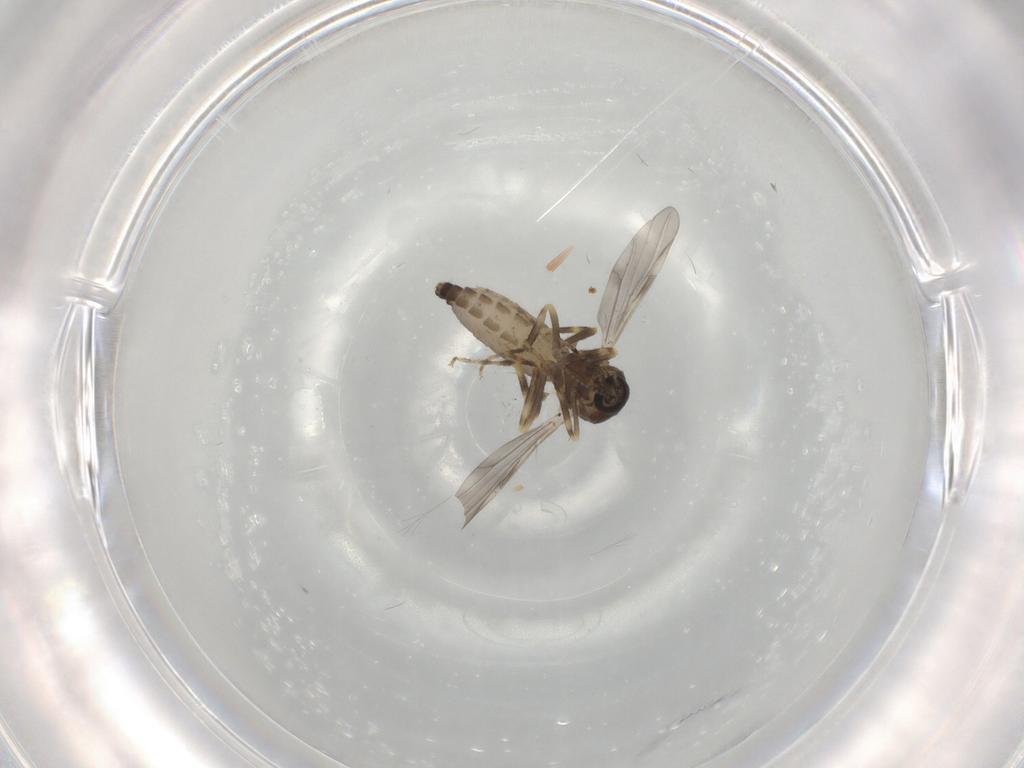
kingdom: Animalia
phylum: Arthropoda
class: Insecta
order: Diptera
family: Ceratopogonidae
